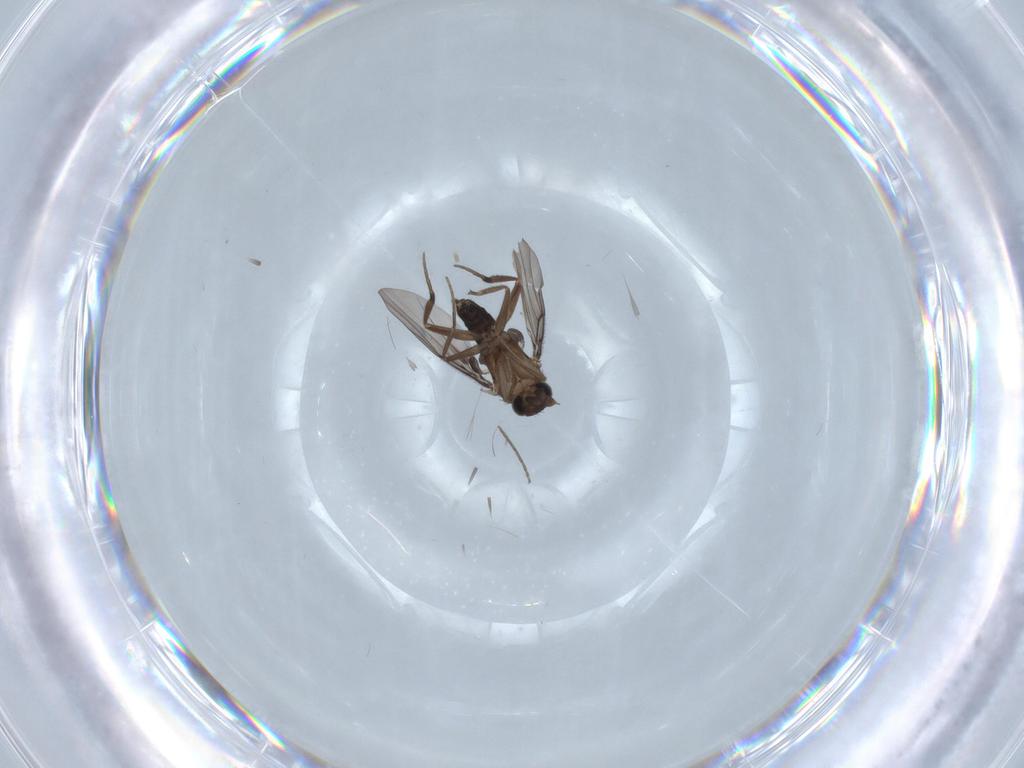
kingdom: Animalia
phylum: Arthropoda
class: Insecta
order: Diptera
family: Phoridae
